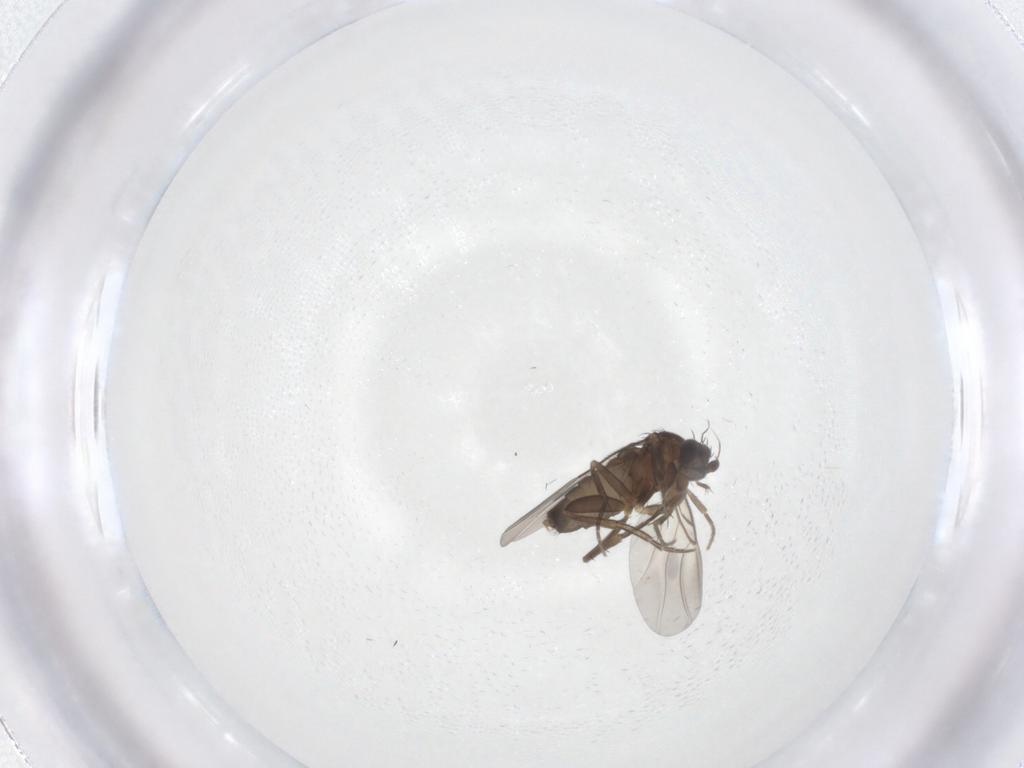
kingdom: Animalia
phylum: Arthropoda
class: Insecta
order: Diptera
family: Phoridae
